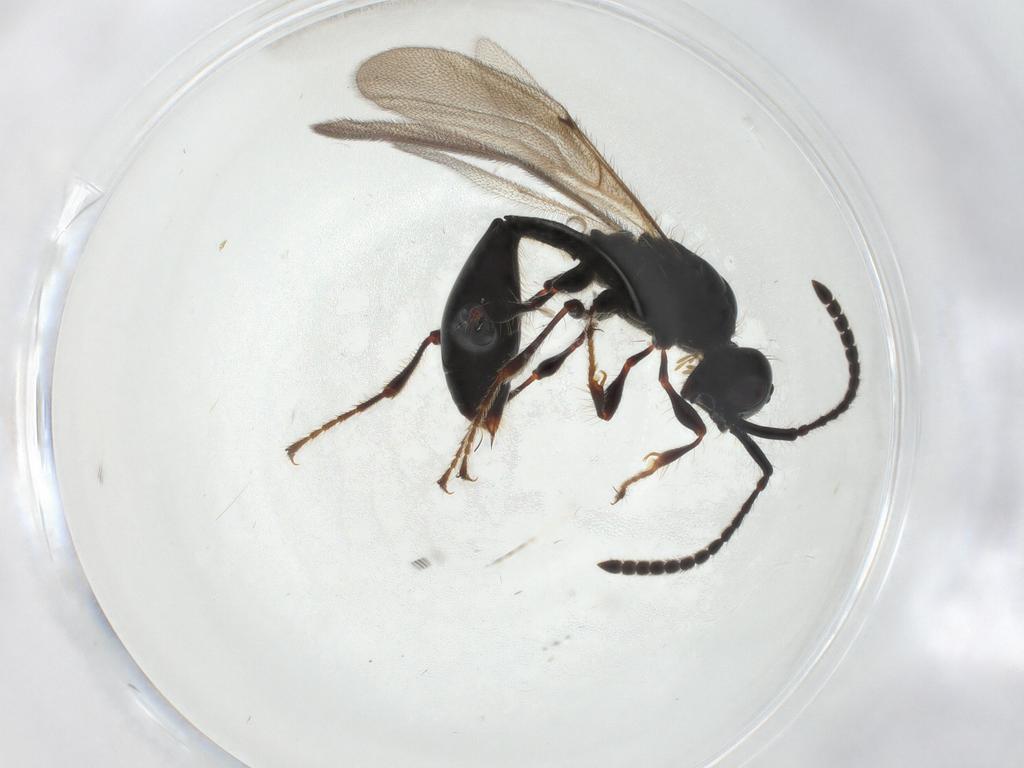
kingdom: Animalia
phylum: Arthropoda
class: Insecta
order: Hymenoptera
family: Diapriidae
